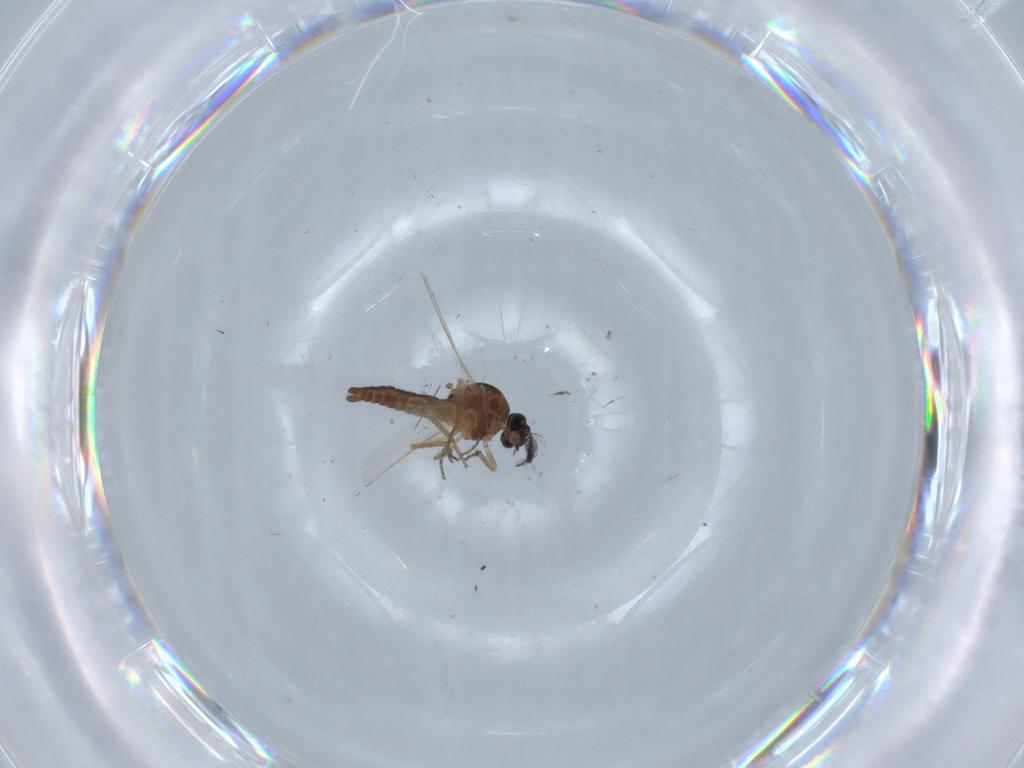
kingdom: Animalia
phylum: Arthropoda
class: Insecta
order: Diptera
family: Ceratopogonidae
